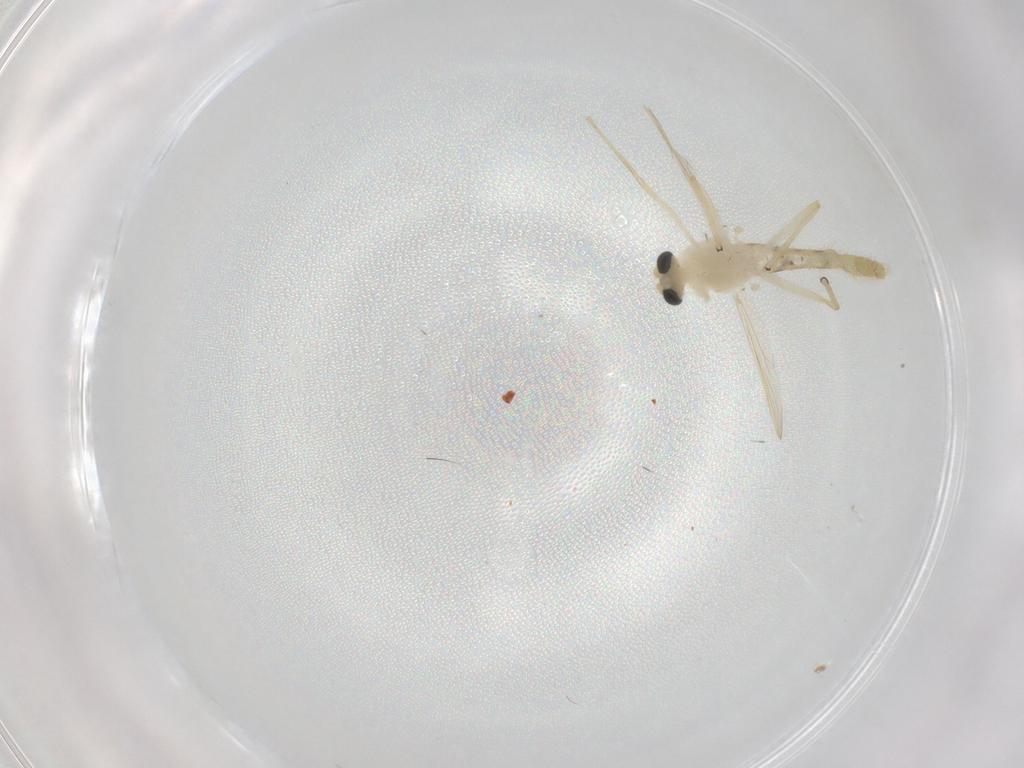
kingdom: Animalia
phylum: Arthropoda
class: Insecta
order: Diptera
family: Chironomidae
